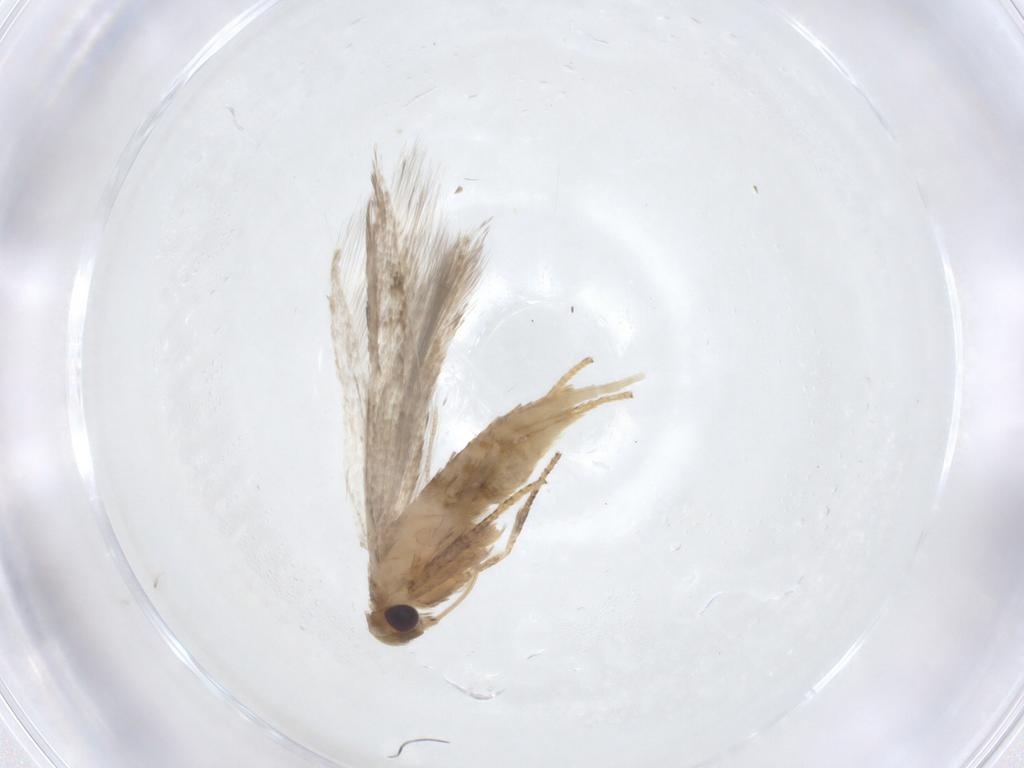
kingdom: Animalia
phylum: Arthropoda
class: Insecta
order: Lepidoptera
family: Blastobasidae
